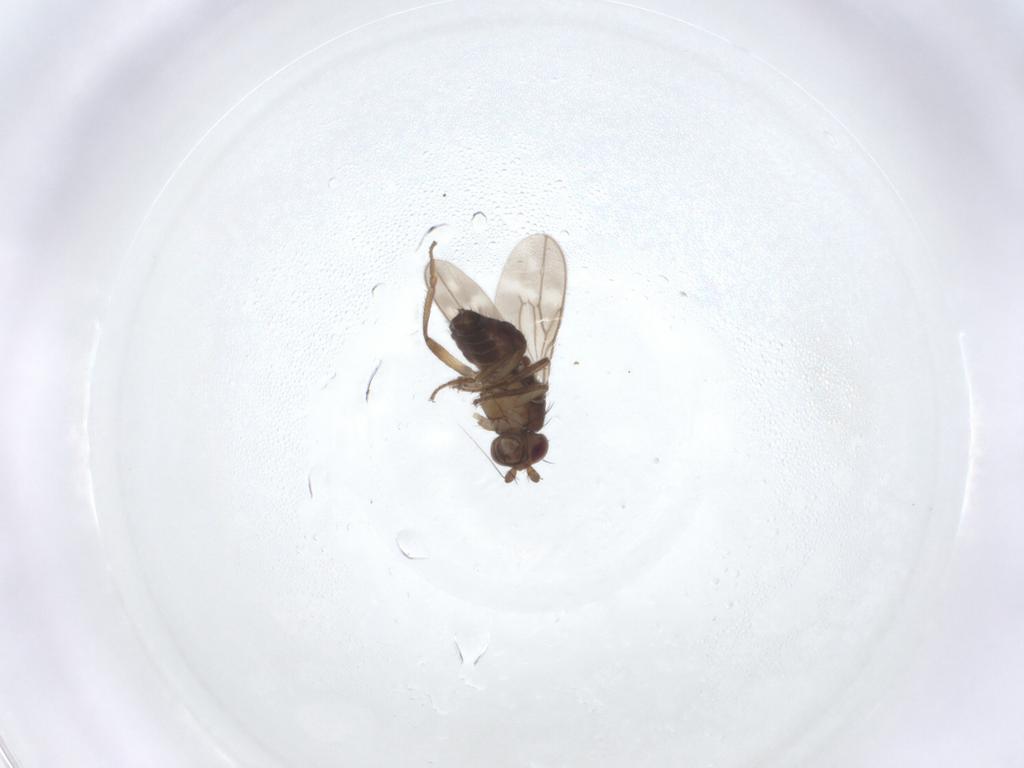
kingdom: Animalia
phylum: Arthropoda
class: Insecta
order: Diptera
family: Sphaeroceridae
